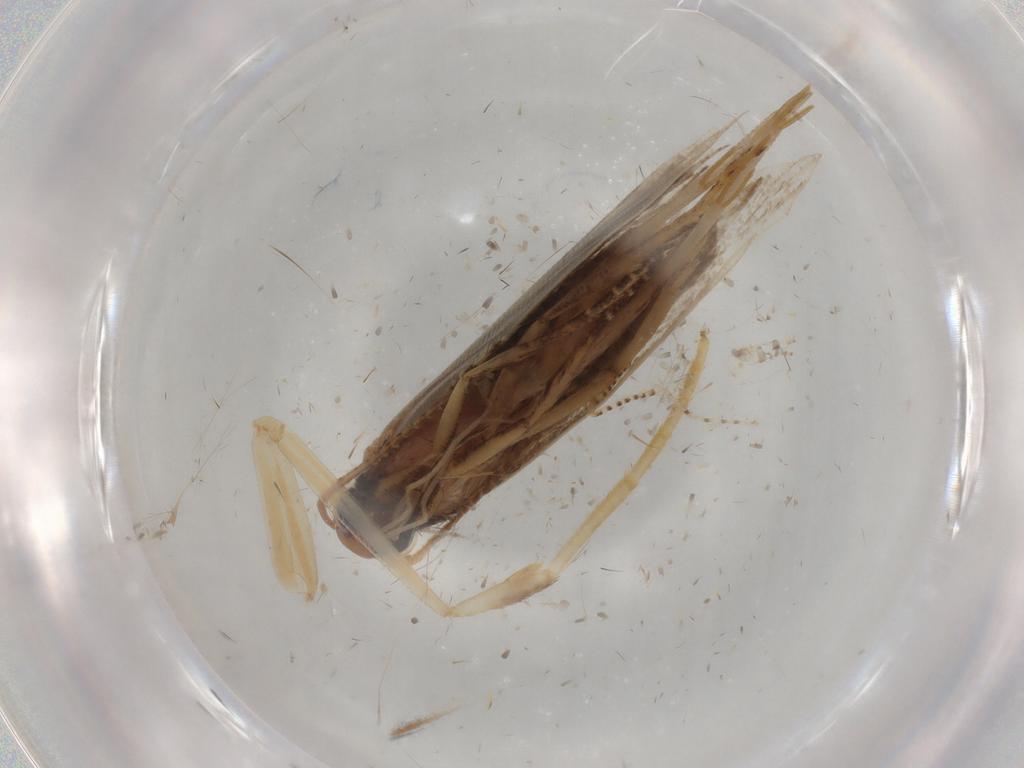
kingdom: Animalia
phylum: Arthropoda
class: Insecta
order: Lepidoptera
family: Gelechiidae
